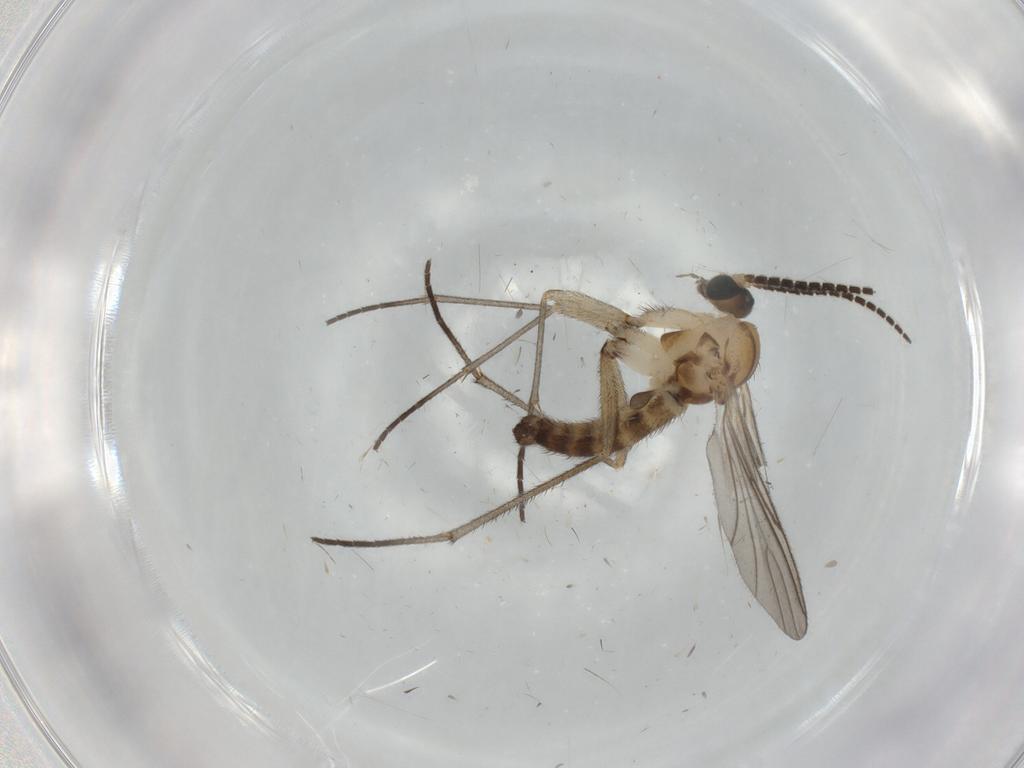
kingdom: Animalia
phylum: Arthropoda
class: Insecta
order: Diptera
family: Sciaridae
